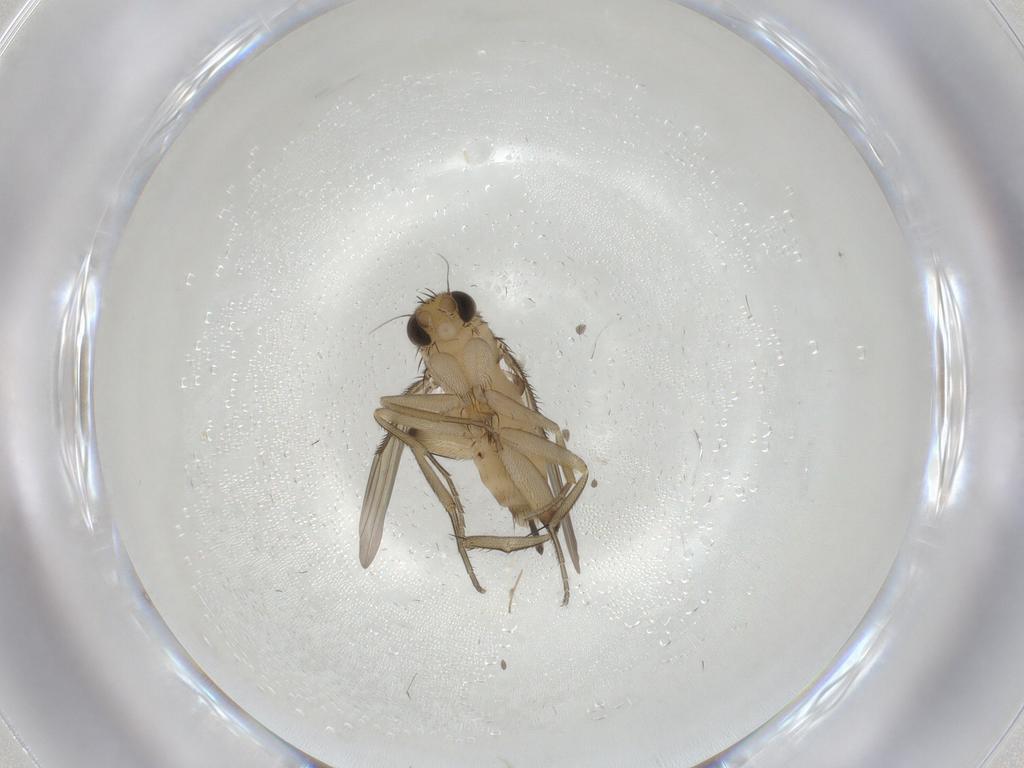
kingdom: Animalia
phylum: Arthropoda
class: Insecta
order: Diptera
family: Phoridae
